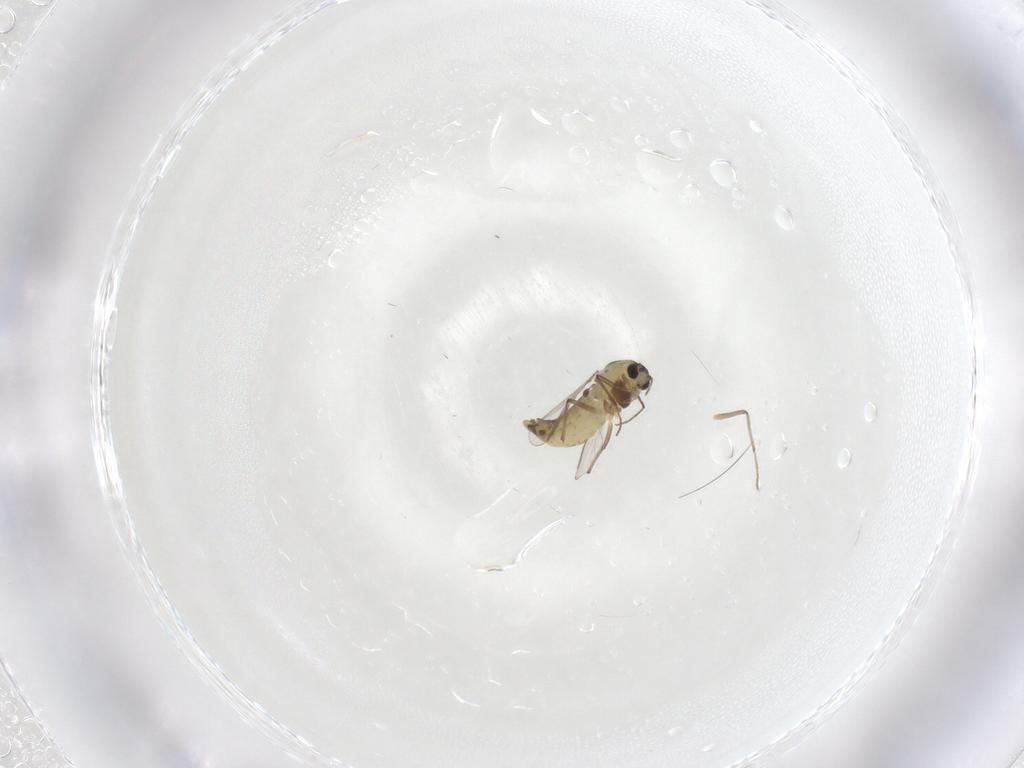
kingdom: Animalia
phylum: Arthropoda
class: Insecta
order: Diptera
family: Chironomidae
